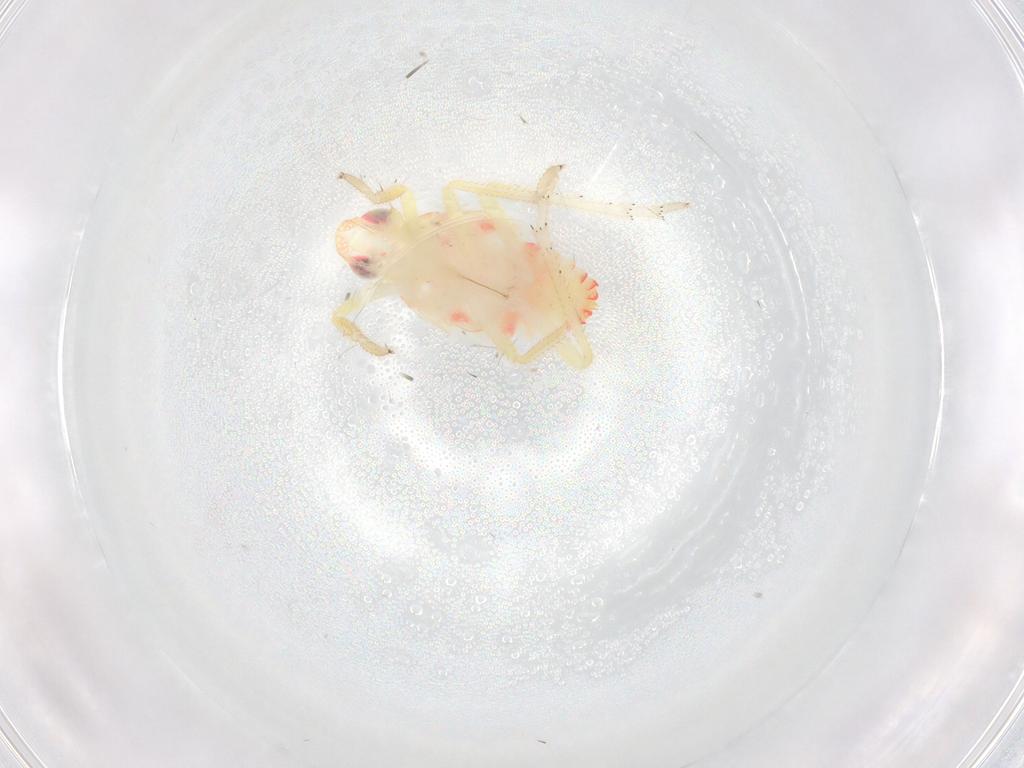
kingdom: Animalia
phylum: Arthropoda
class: Insecta
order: Hemiptera
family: Tropiduchidae
